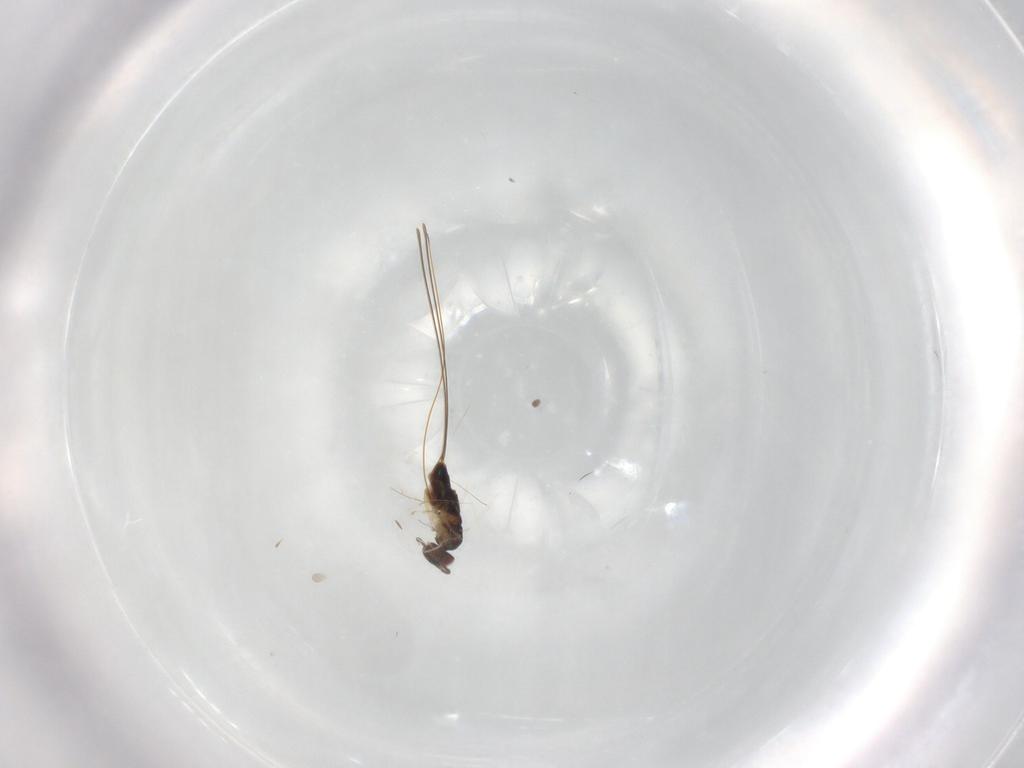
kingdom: Animalia
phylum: Arthropoda
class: Insecta
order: Hymenoptera
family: Pteromalidae
